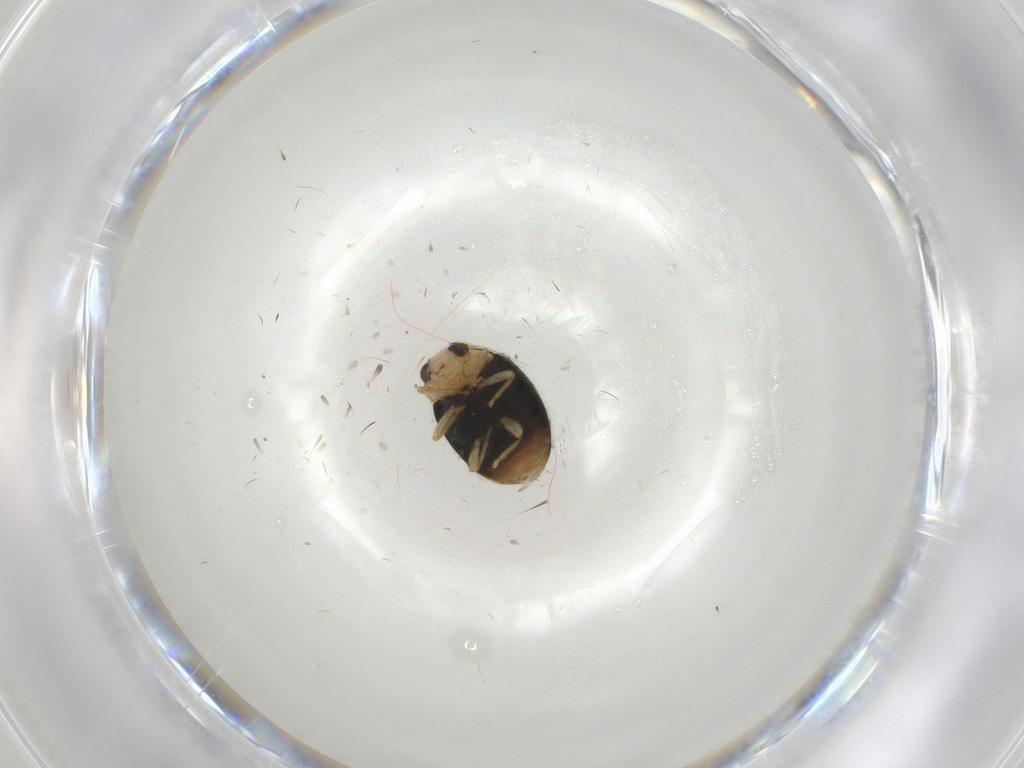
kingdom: Animalia
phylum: Arthropoda
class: Insecta
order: Coleoptera
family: Coccinellidae
